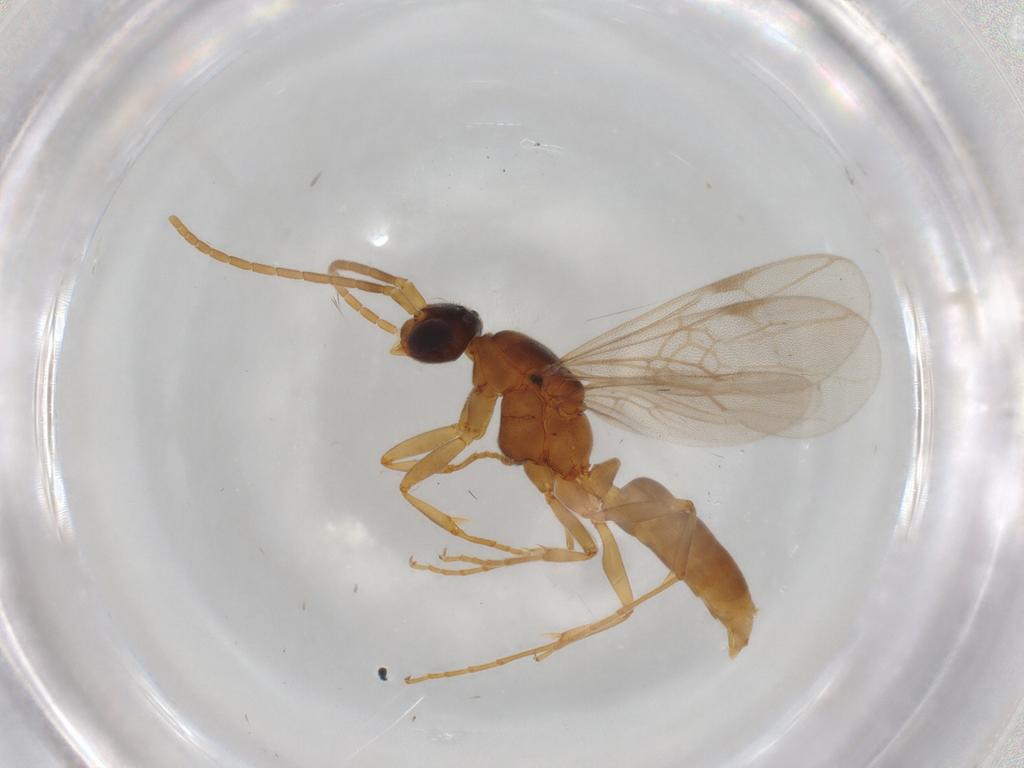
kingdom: Animalia
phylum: Arthropoda
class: Insecta
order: Hymenoptera
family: Formicidae
